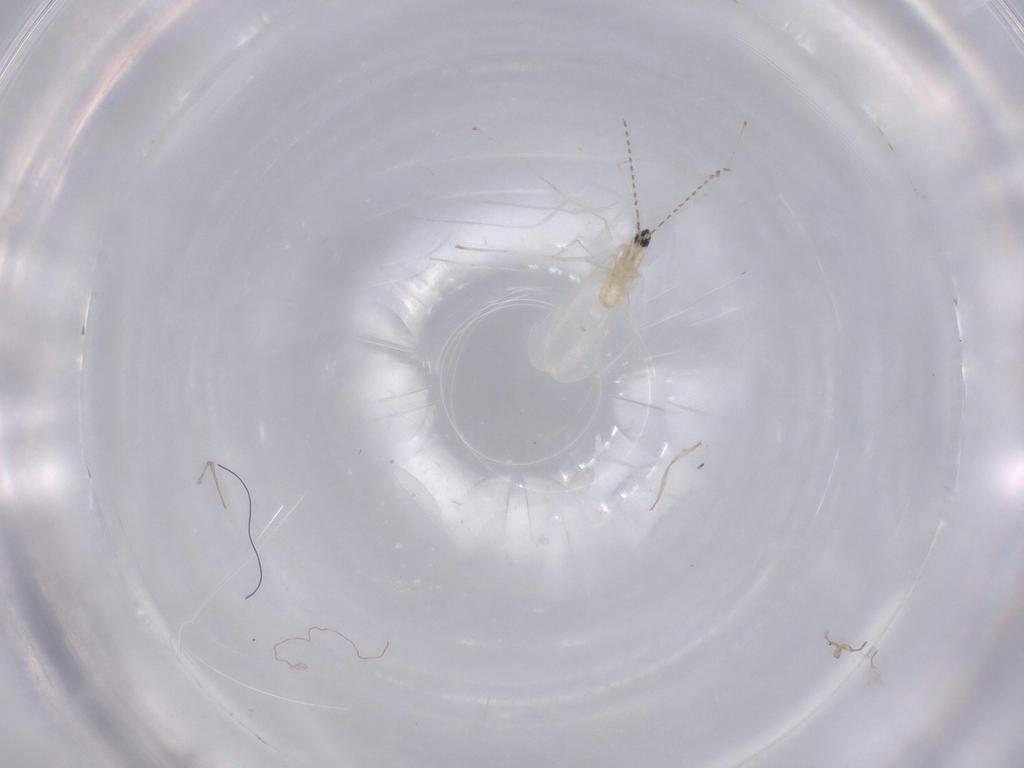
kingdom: Animalia
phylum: Arthropoda
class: Insecta
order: Diptera
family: Cecidomyiidae
